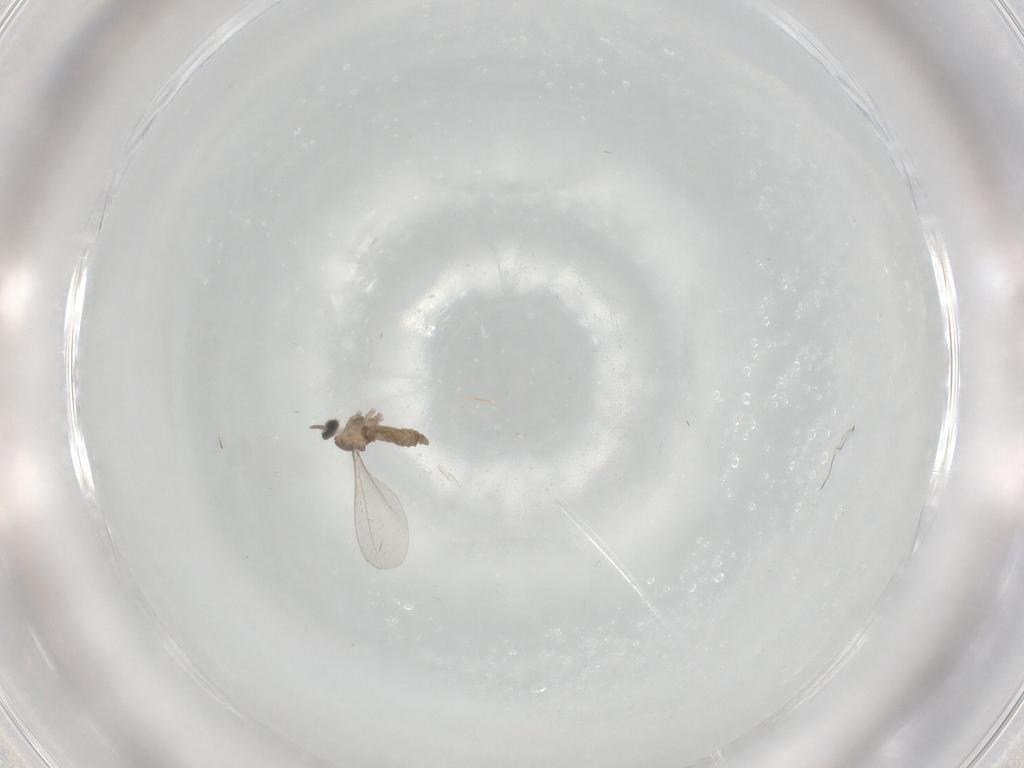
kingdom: Animalia
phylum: Arthropoda
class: Insecta
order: Diptera
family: Cecidomyiidae
